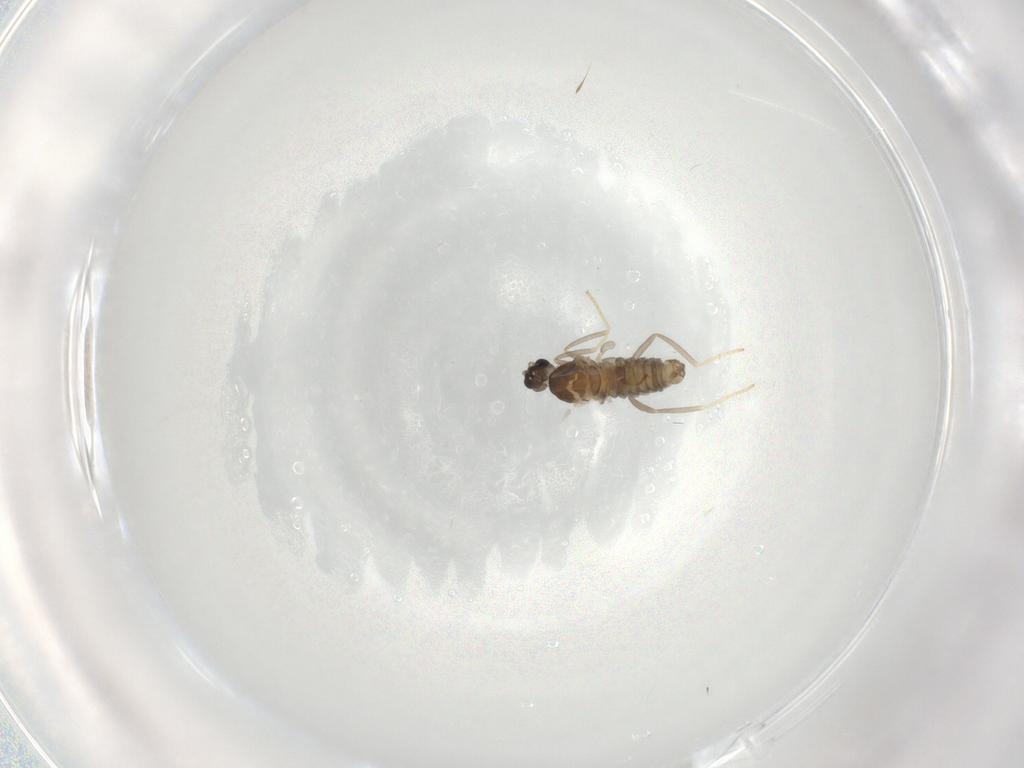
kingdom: Animalia
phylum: Arthropoda
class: Insecta
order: Diptera
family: Cecidomyiidae
